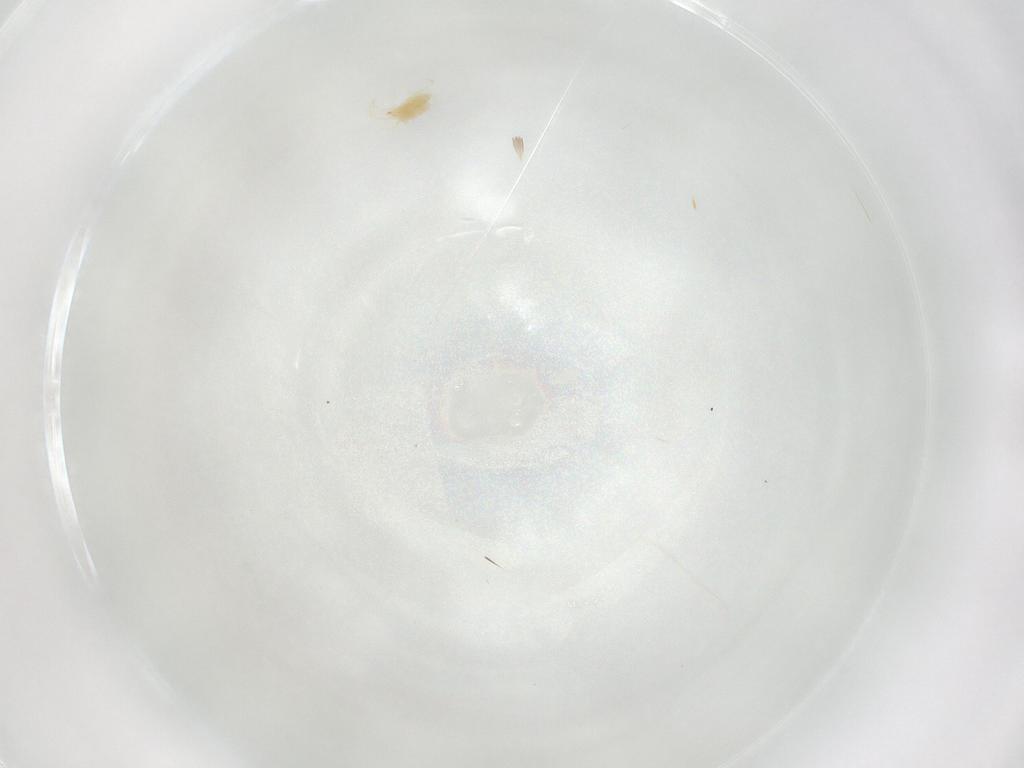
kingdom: Animalia
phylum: Arthropoda
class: Arachnida
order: Trombidiformes
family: Tetranychidae
